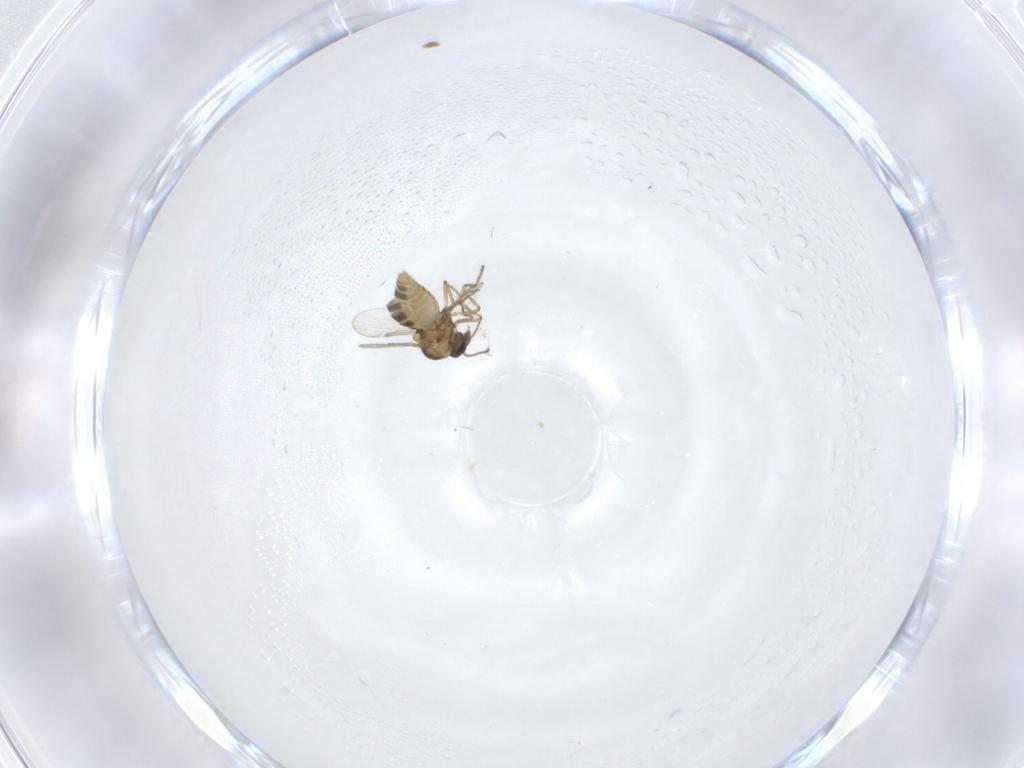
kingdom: Animalia
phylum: Arthropoda
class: Insecta
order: Diptera
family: Ceratopogonidae
